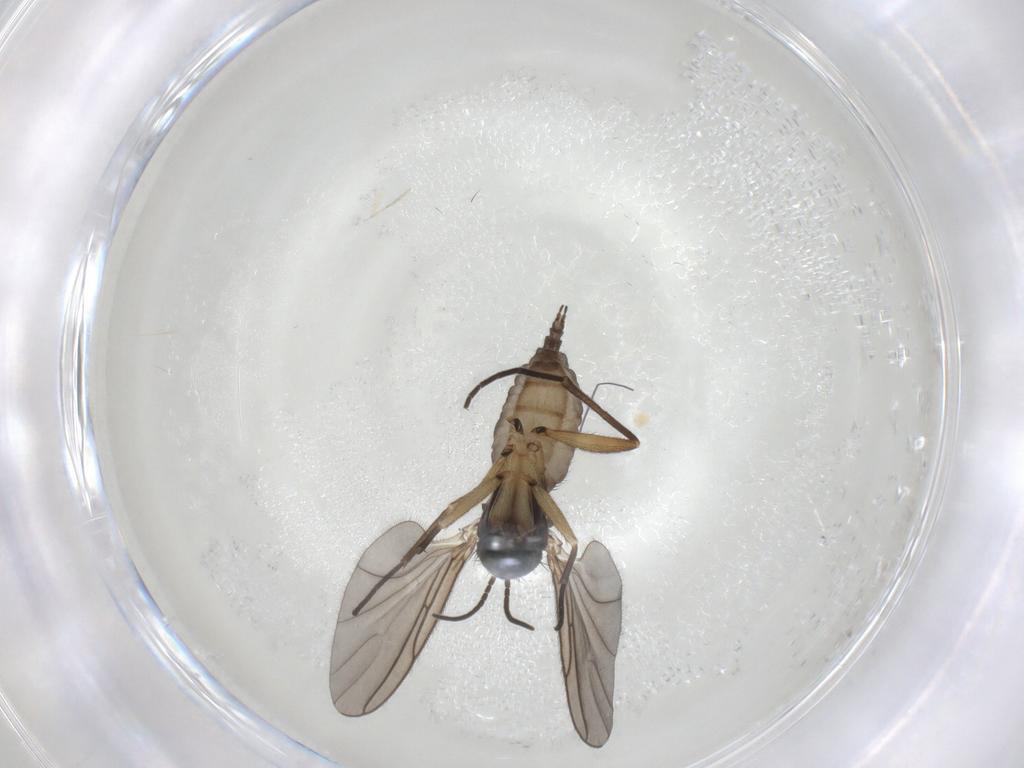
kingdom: Animalia
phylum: Arthropoda
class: Insecta
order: Diptera
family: Sciaridae
